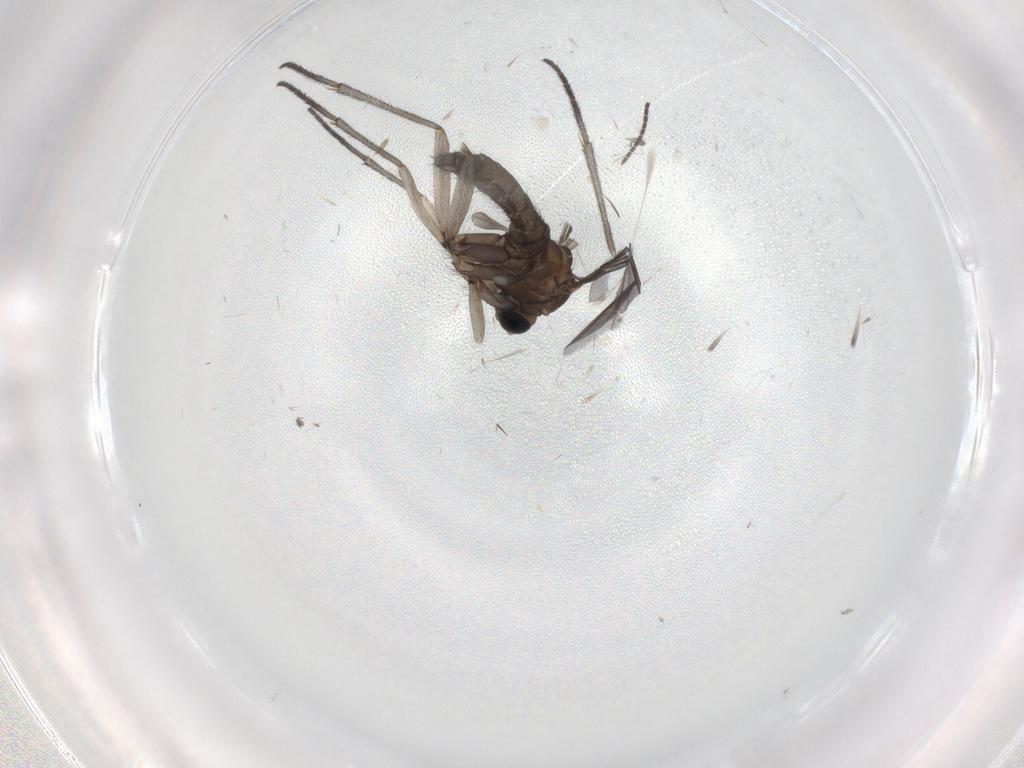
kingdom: Animalia
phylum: Arthropoda
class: Insecta
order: Diptera
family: Sciaridae
